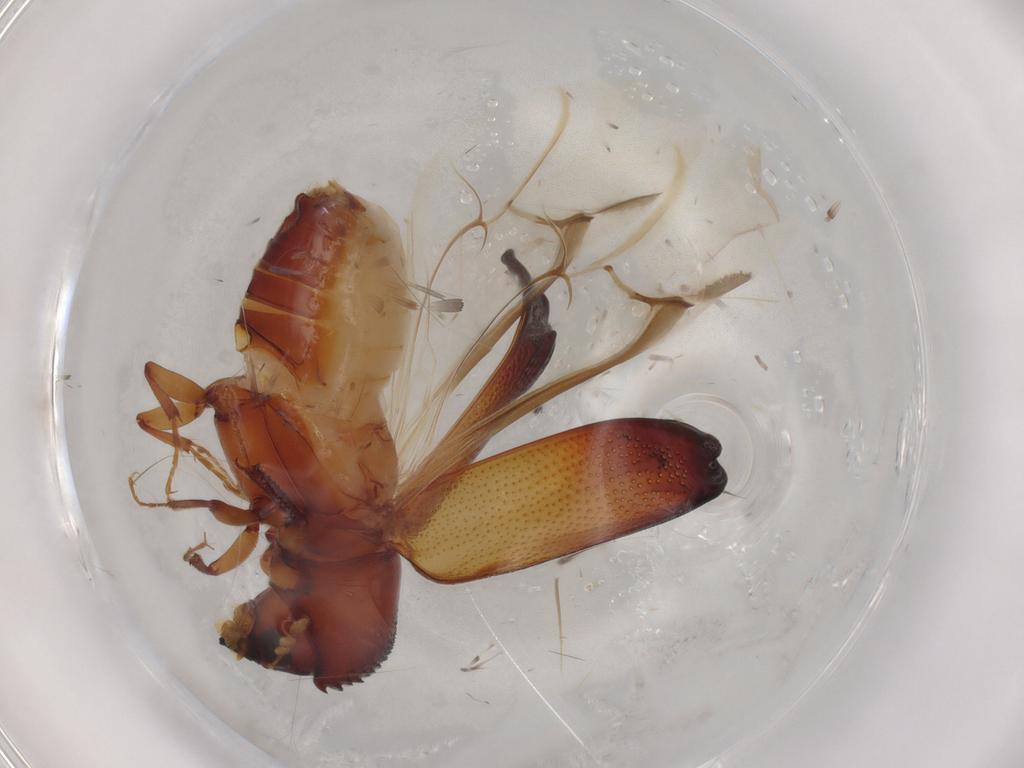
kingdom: Animalia
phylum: Arthropoda
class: Insecta
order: Coleoptera
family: Bostrichidae
